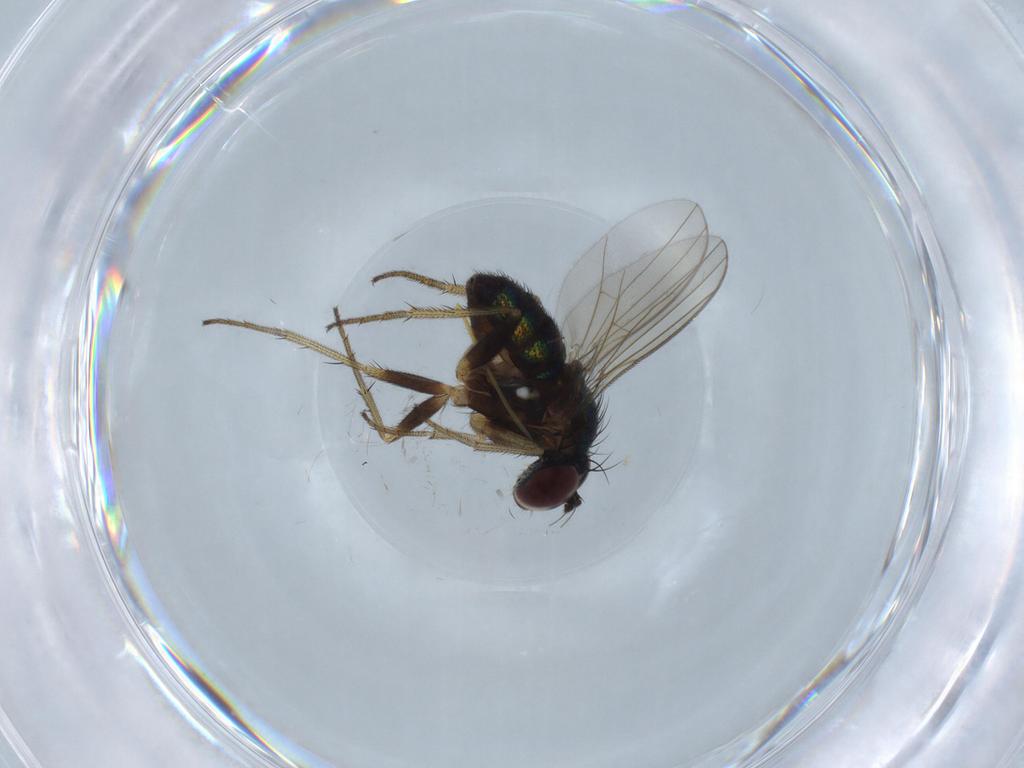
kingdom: Animalia
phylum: Arthropoda
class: Insecta
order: Diptera
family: Dolichopodidae
